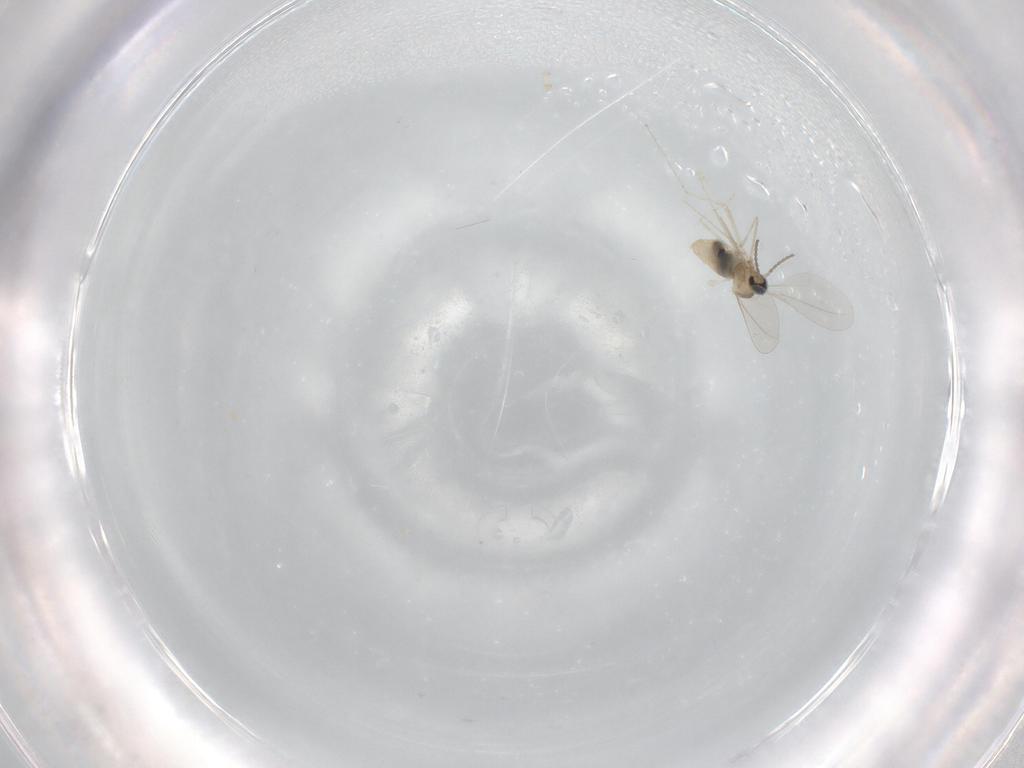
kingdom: Animalia
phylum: Arthropoda
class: Insecta
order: Diptera
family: Cecidomyiidae
